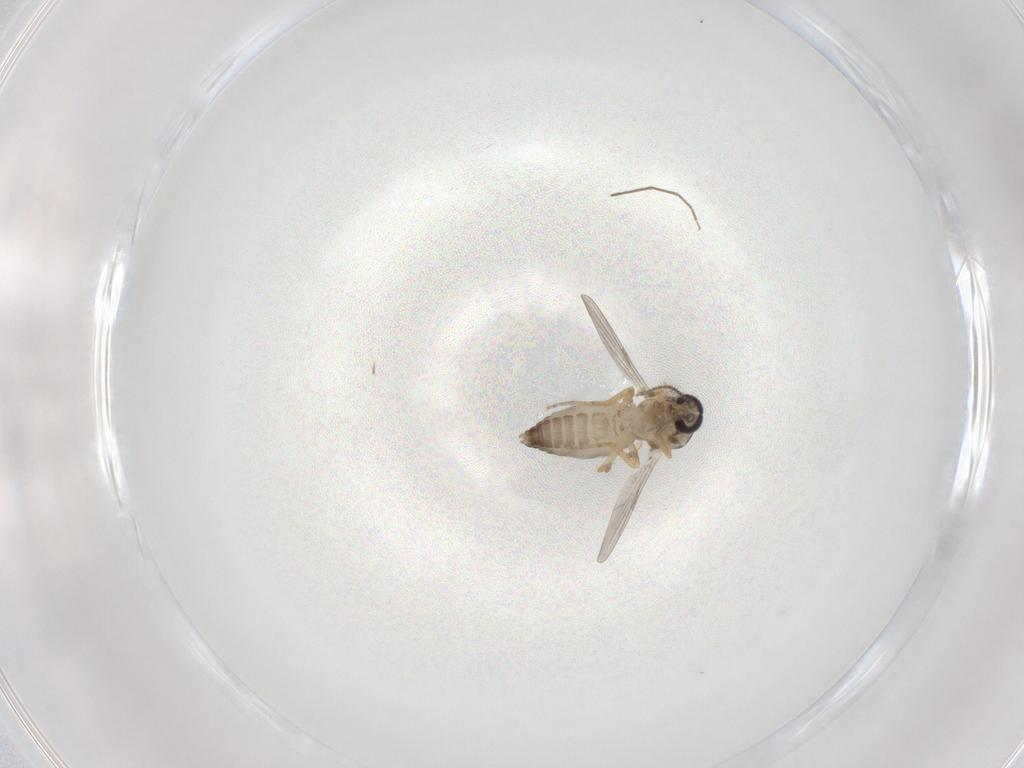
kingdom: Animalia
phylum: Arthropoda
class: Insecta
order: Diptera
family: Ceratopogonidae
